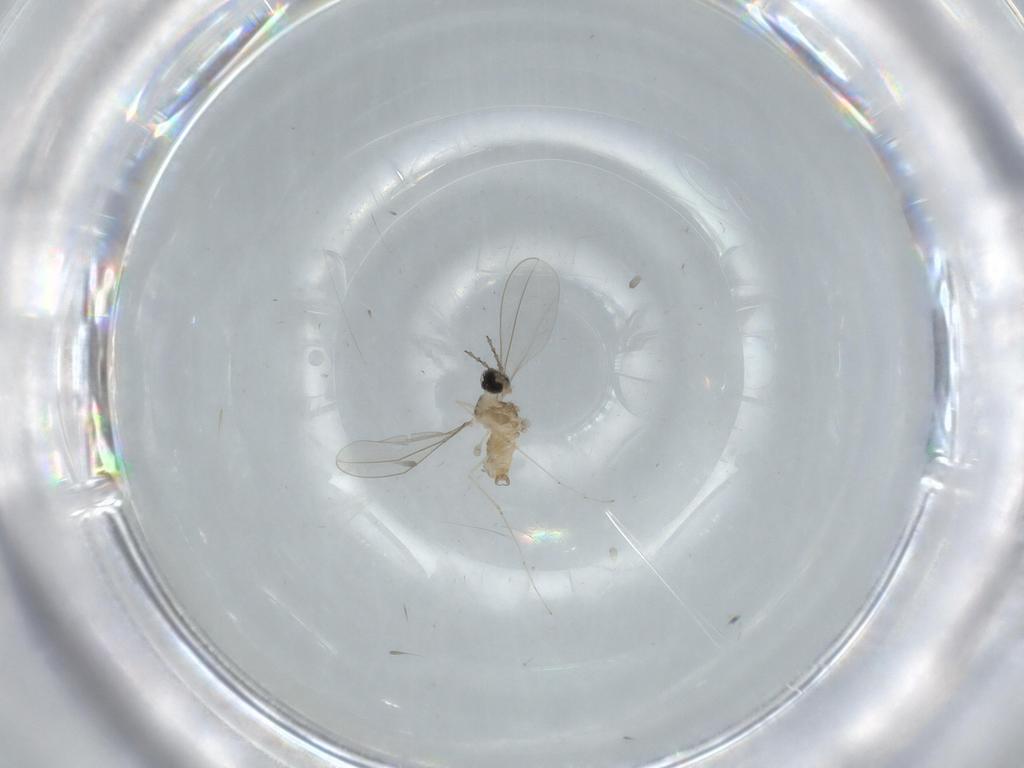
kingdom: Animalia
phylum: Arthropoda
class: Insecta
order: Diptera
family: Cecidomyiidae
